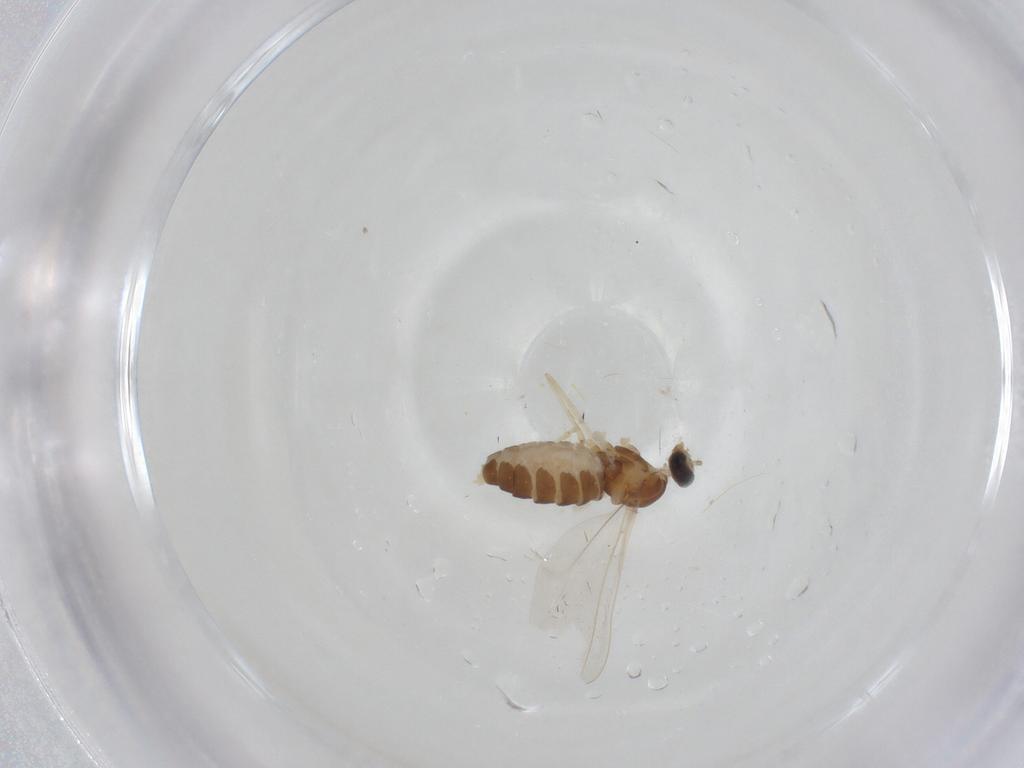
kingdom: Animalia
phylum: Arthropoda
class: Insecta
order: Diptera
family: Cecidomyiidae
